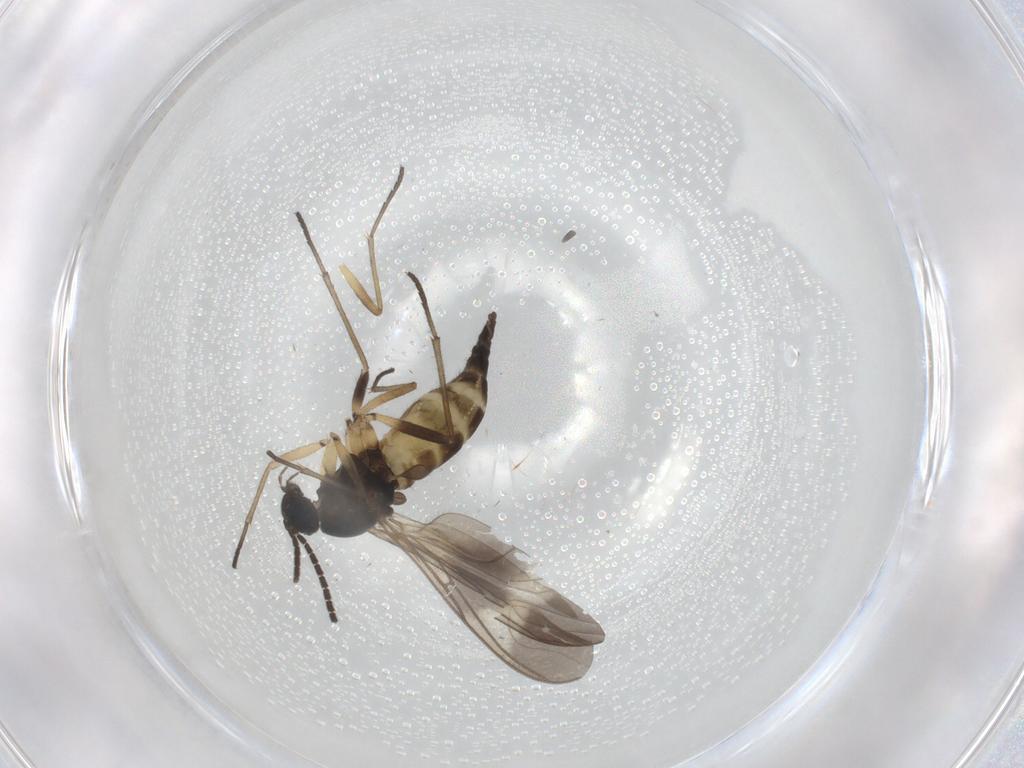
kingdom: Animalia
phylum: Arthropoda
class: Insecta
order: Diptera
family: Sciaridae
